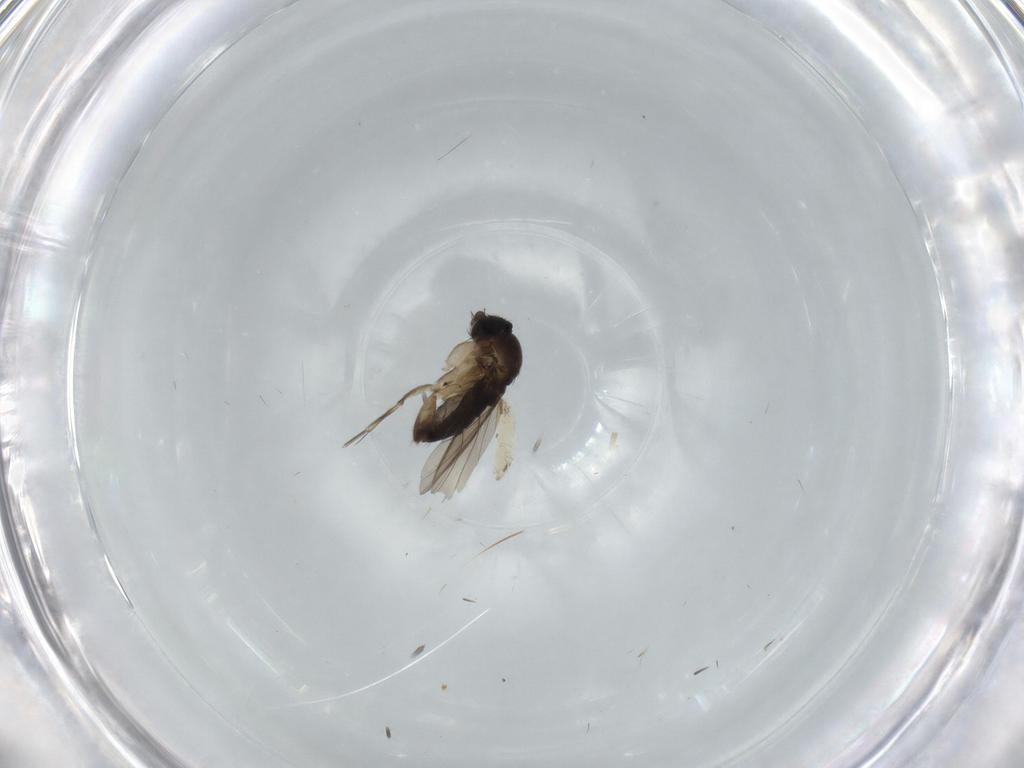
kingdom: Animalia
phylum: Arthropoda
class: Insecta
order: Diptera
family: Phoridae
